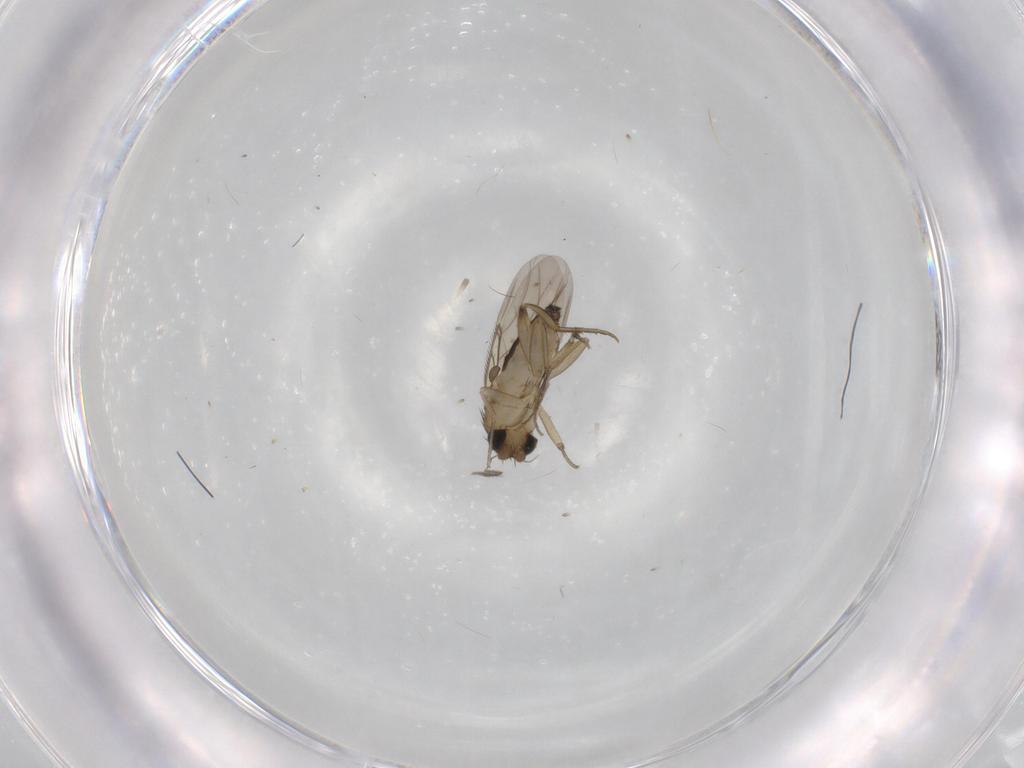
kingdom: Animalia
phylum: Arthropoda
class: Insecta
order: Diptera
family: Phoridae
